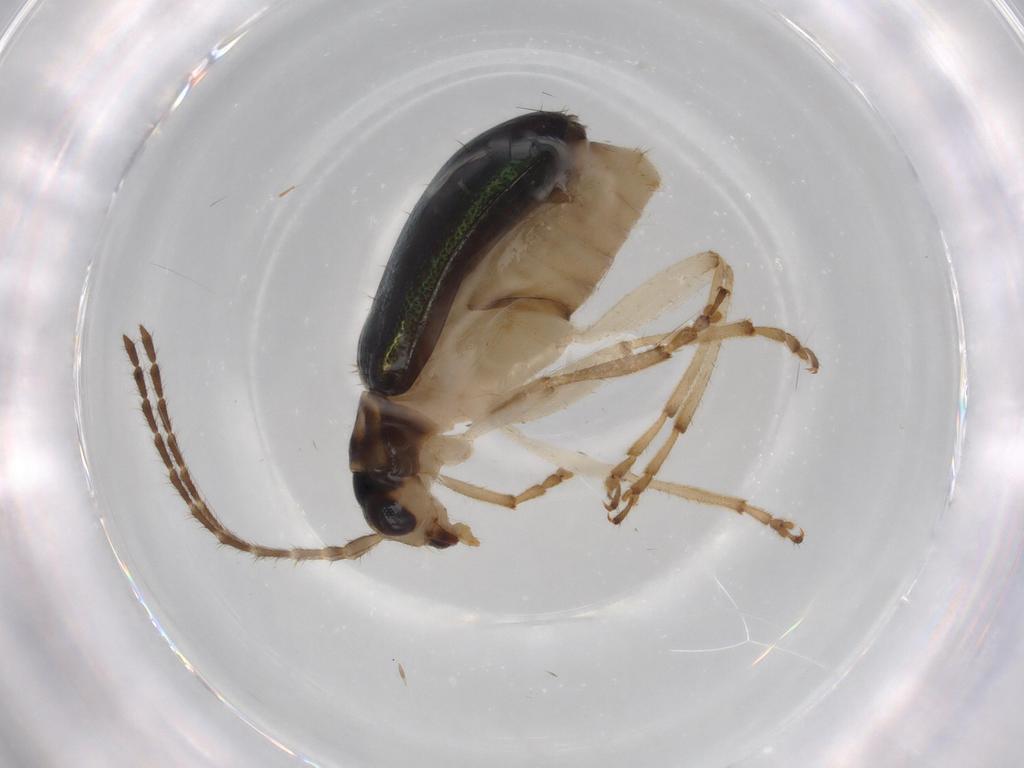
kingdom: Animalia
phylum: Arthropoda
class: Insecta
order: Coleoptera
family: Chrysomelidae
